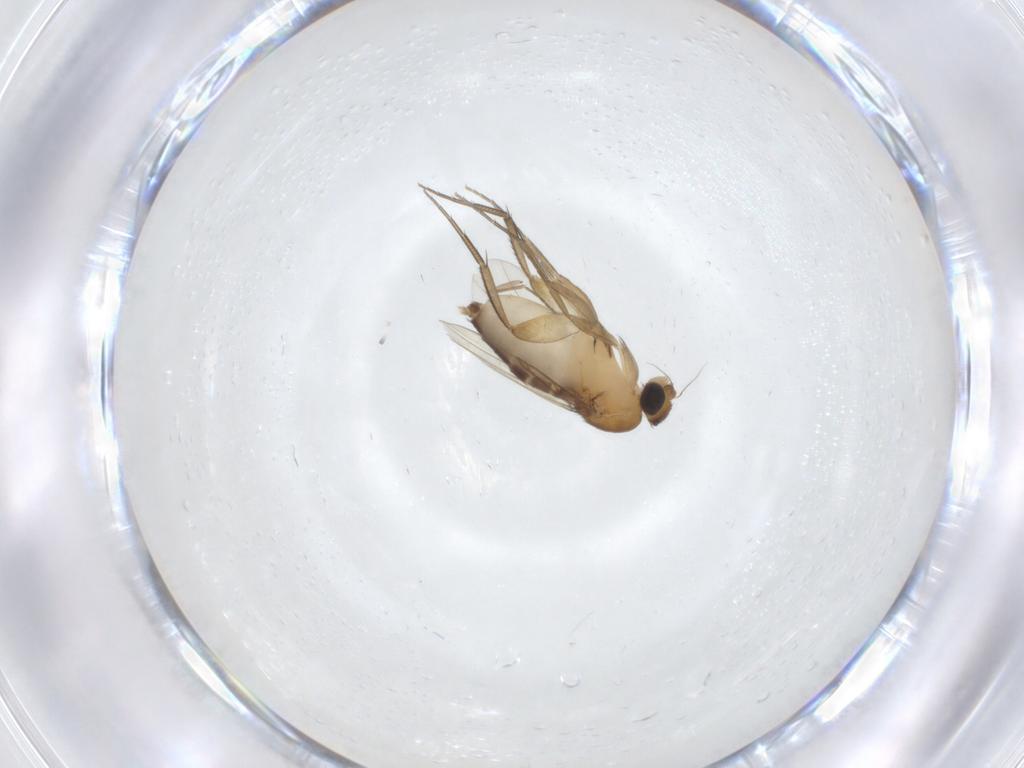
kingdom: Animalia
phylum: Arthropoda
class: Insecta
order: Diptera
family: Phoridae
